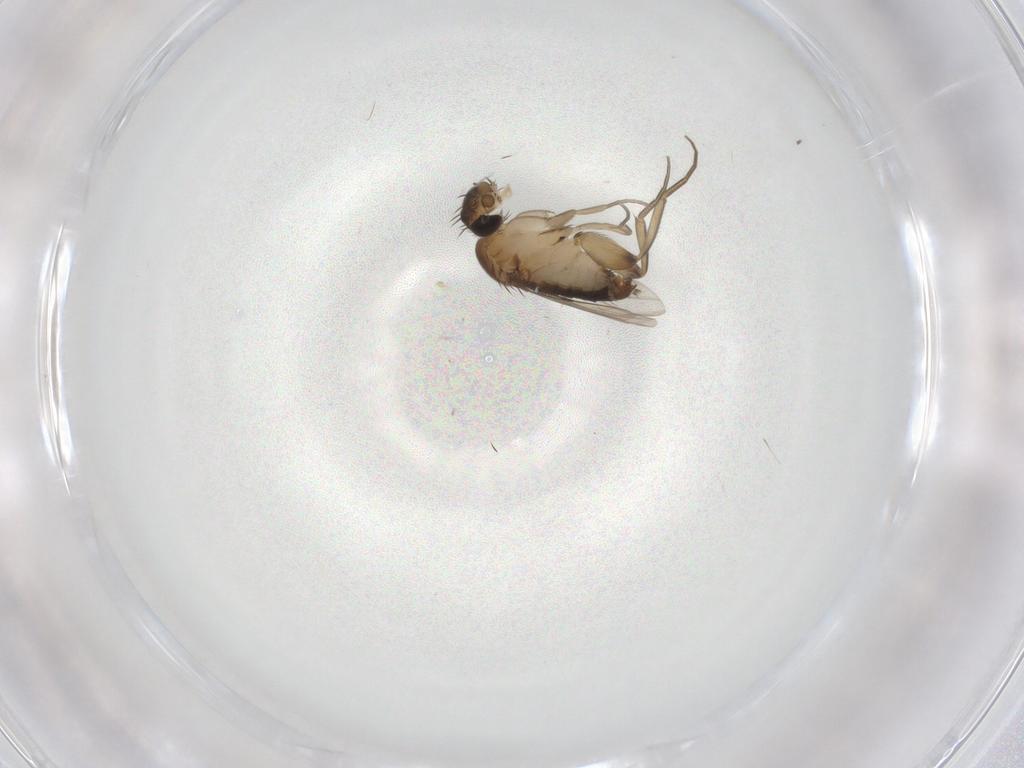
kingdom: Animalia
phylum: Arthropoda
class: Insecta
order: Diptera
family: Phoridae
